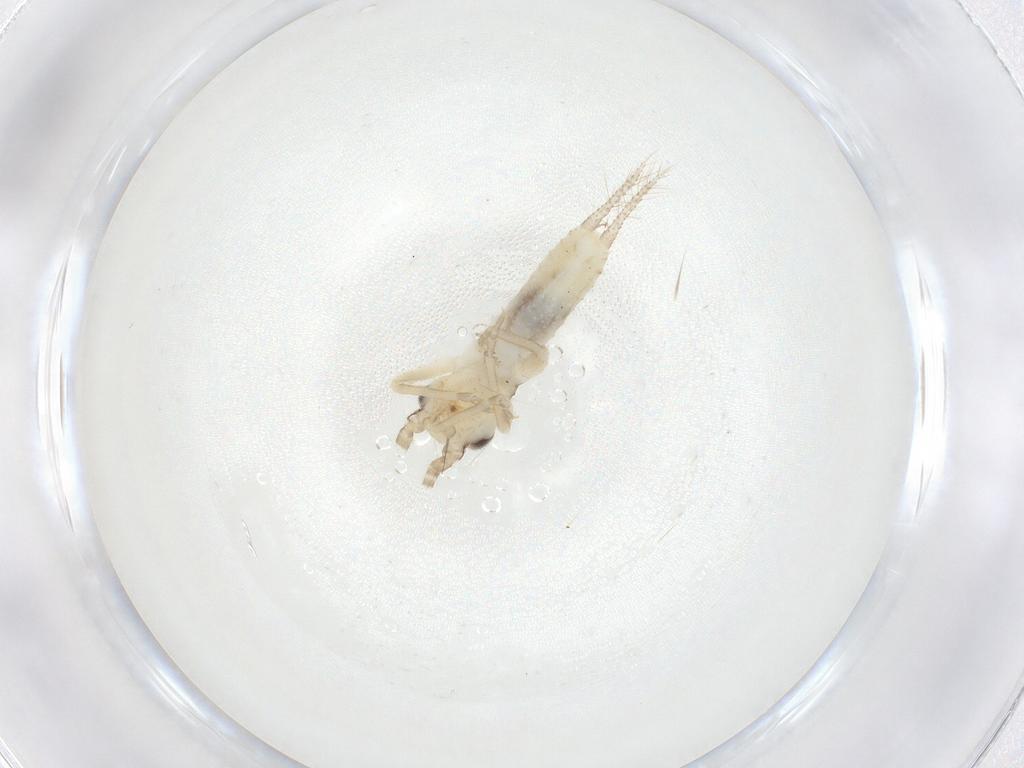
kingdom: Animalia
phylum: Arthropoda
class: Insecta
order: Orthoptera
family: Gryllidae
